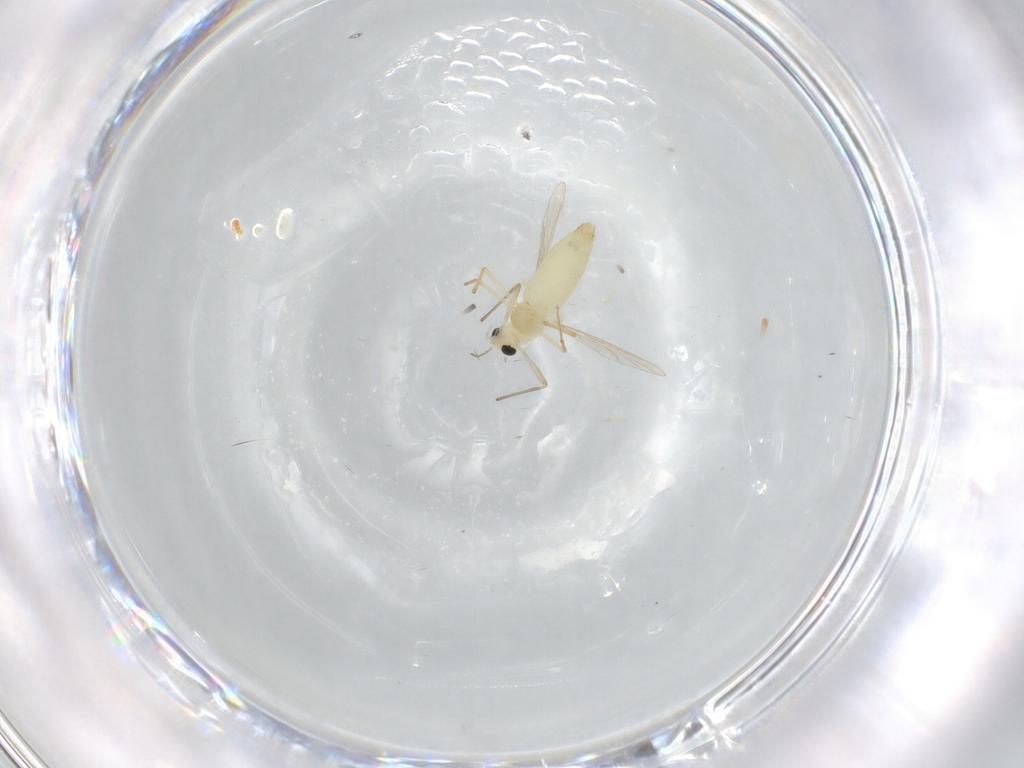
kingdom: Animalia
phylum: Arthropoda
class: Insecta
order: Diptera
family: Chironomidae
